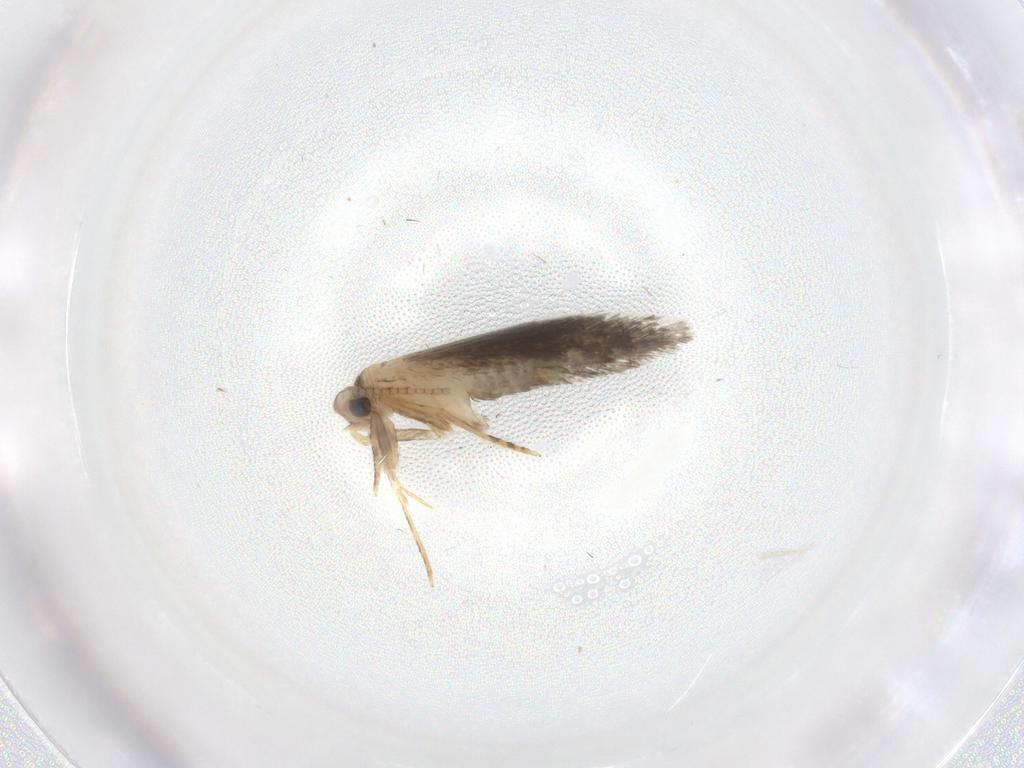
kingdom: Animalia
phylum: Arthropoda
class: Insecta
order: Lepidoptera
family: Tineidae
